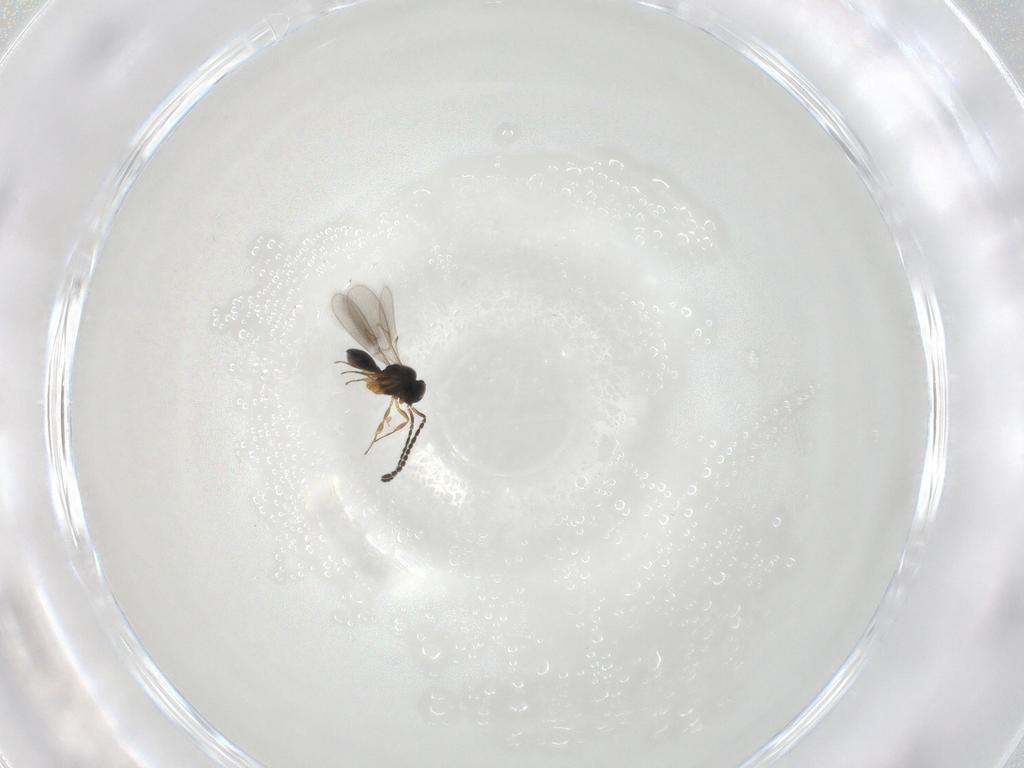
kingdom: Animalia
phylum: Arthropoda
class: Insecta
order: Hymenoptera
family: Scelionidae
